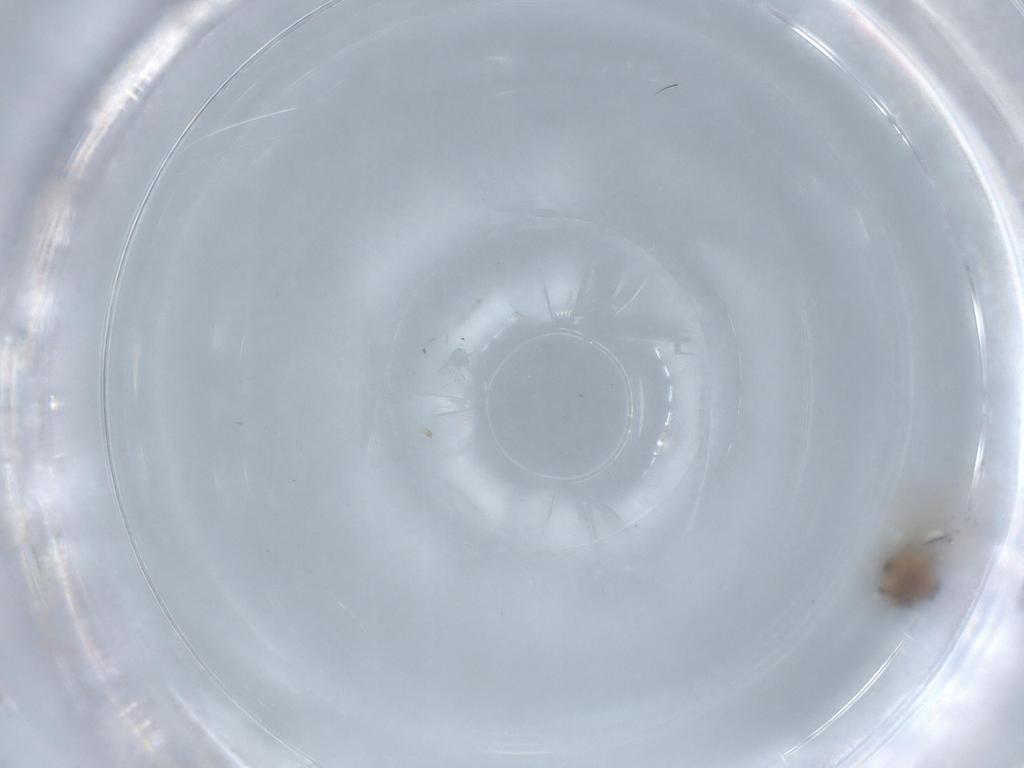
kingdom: Animalia
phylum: Arthropoda
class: Insecta
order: Diptera
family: Ceratopogonidae
